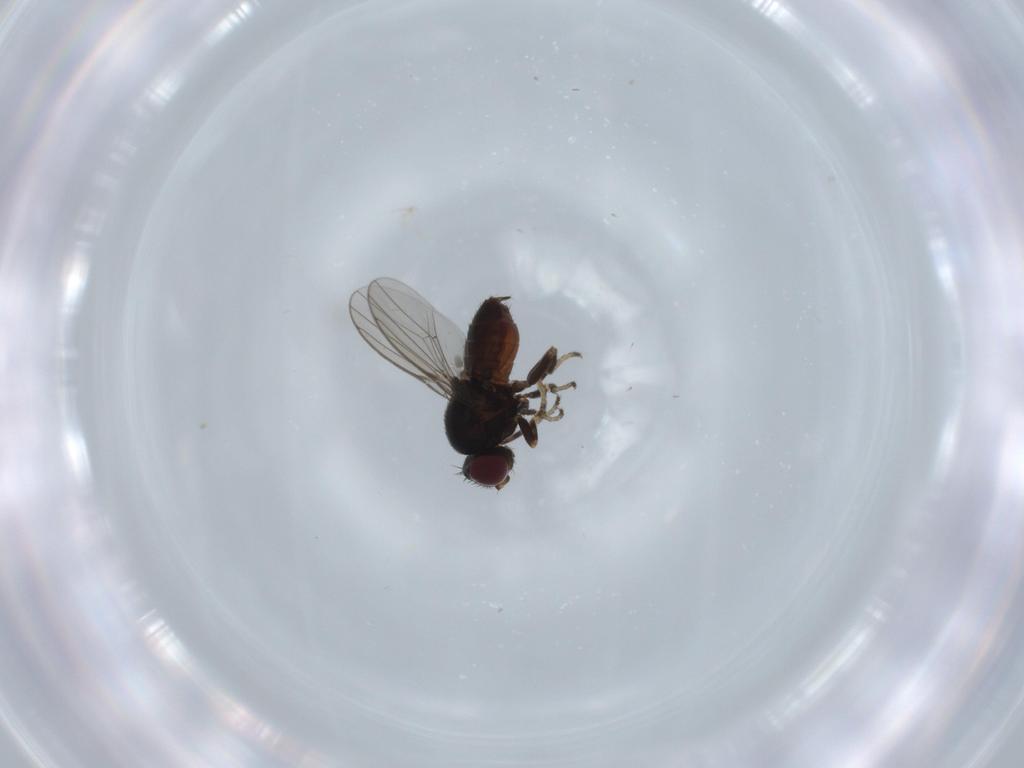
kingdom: Animalia
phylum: Arthropoda
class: Insecta
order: Diptera
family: Chloropidae
